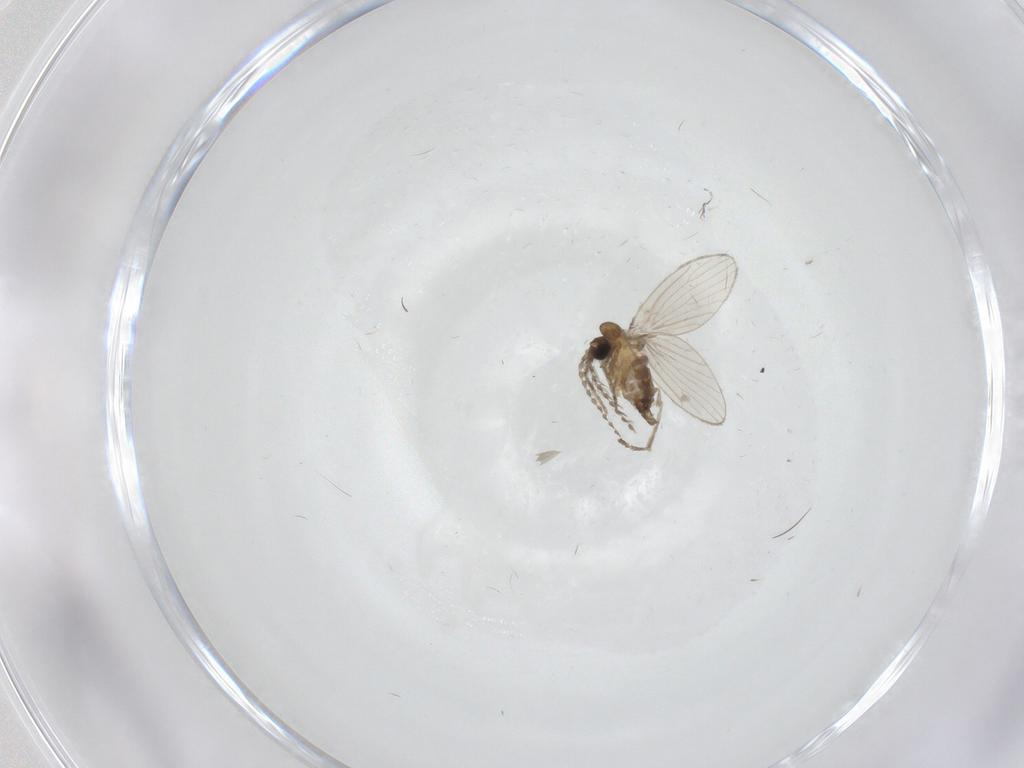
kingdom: Animalia
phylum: Arthropoda
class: Insecta
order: Diptera
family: Psychodidae
